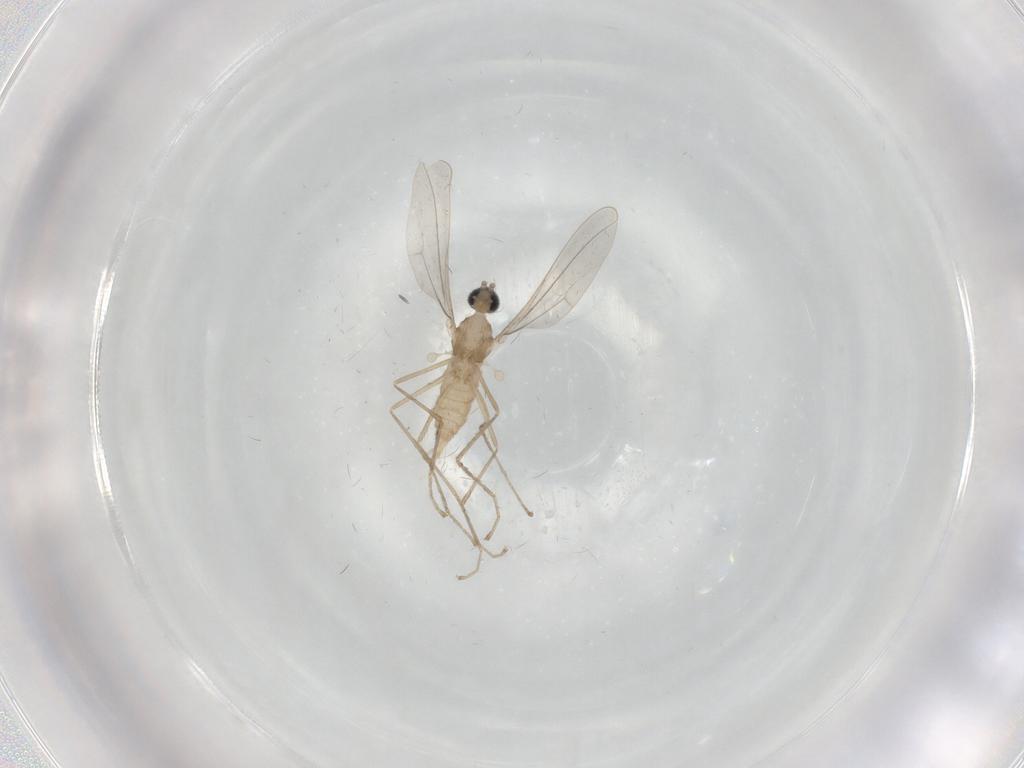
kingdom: Animalia
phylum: Arthropoda
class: Insecta
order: Diptera
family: Cecidomyiidae
